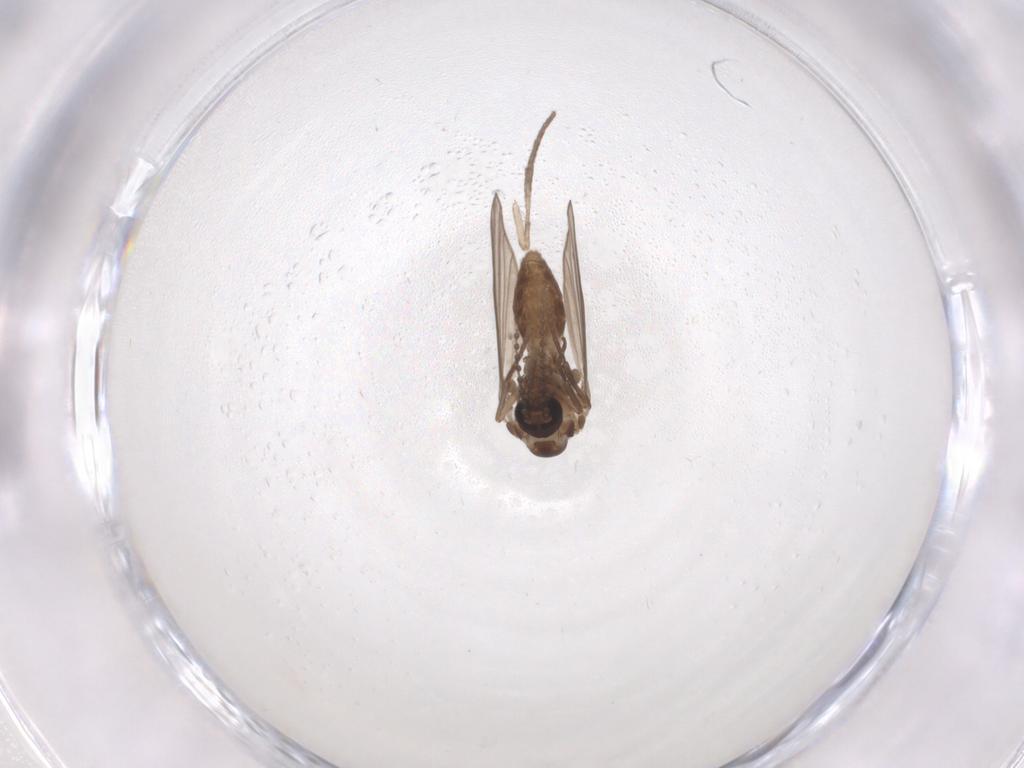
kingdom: Animalia
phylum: Arthropoda
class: Insecta
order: Diptera
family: Psychodidae
